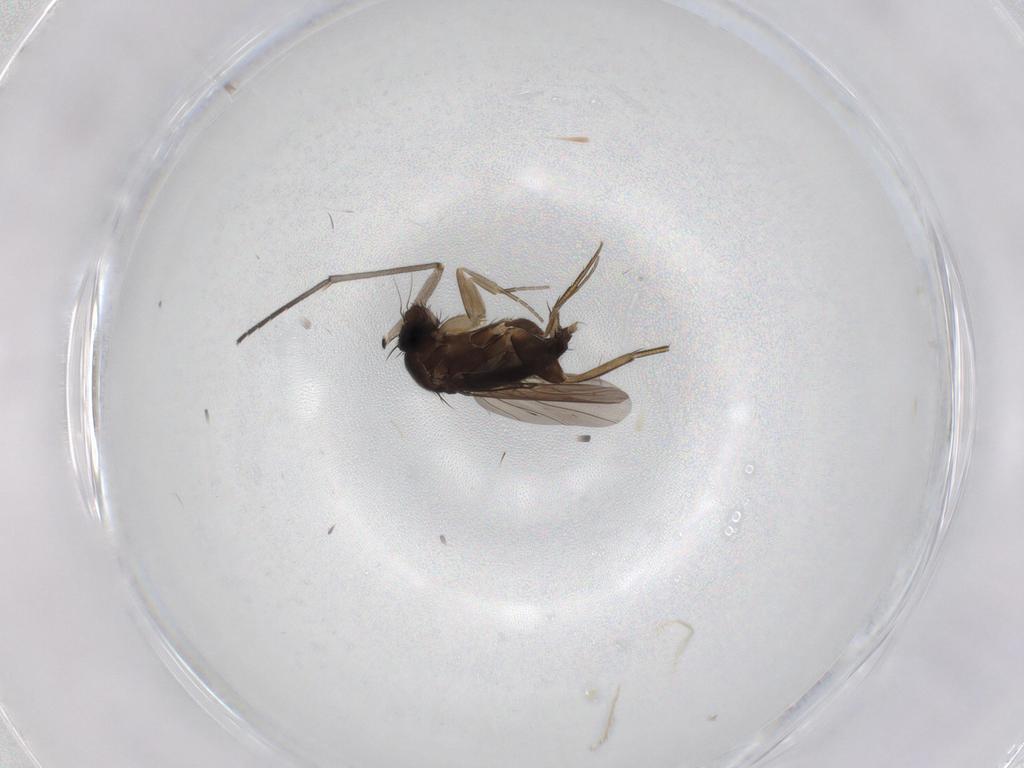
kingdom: Animalia
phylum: Arthropoda
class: Insecta
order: Diptera
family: Phoridae
